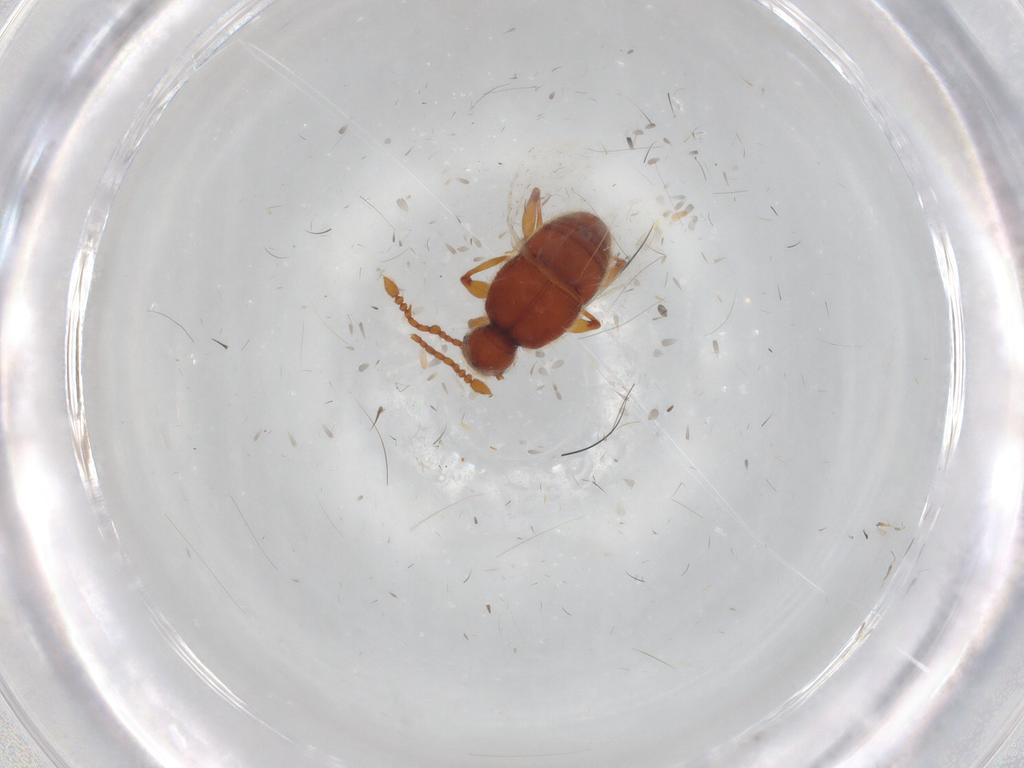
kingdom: Animalia
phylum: Arthropoda
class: Insecta
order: Coleoptera
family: Staphylinidae
